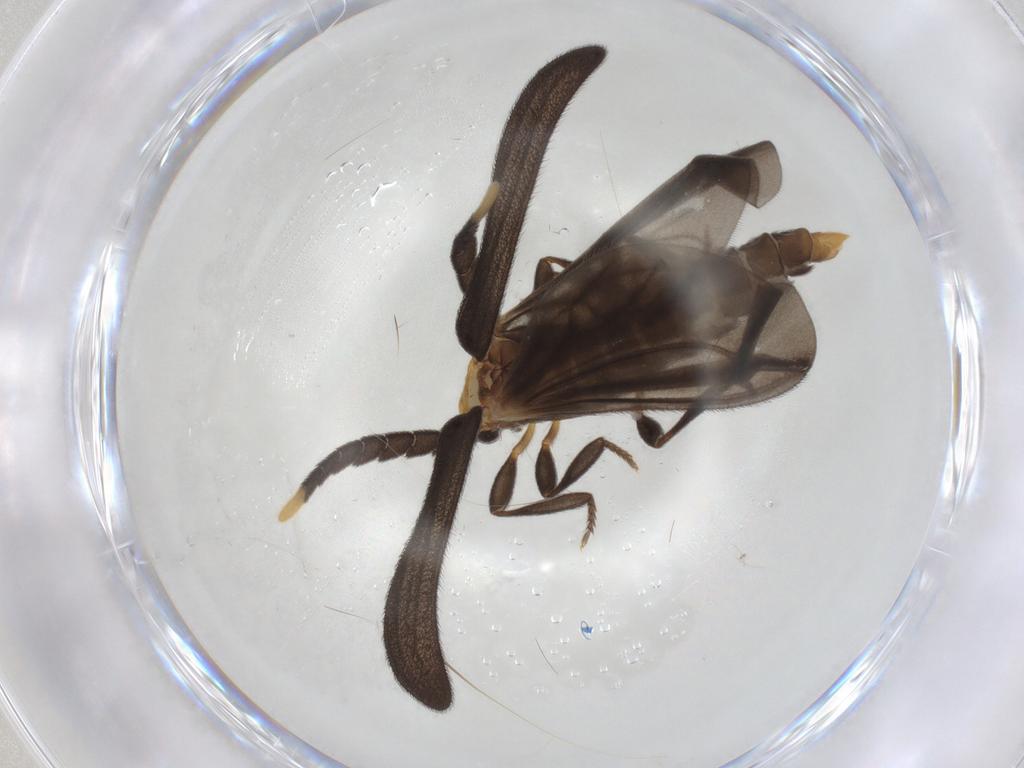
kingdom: Animalia
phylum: Arthropoda
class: Insecta
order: Coleoptera
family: Lycidae
